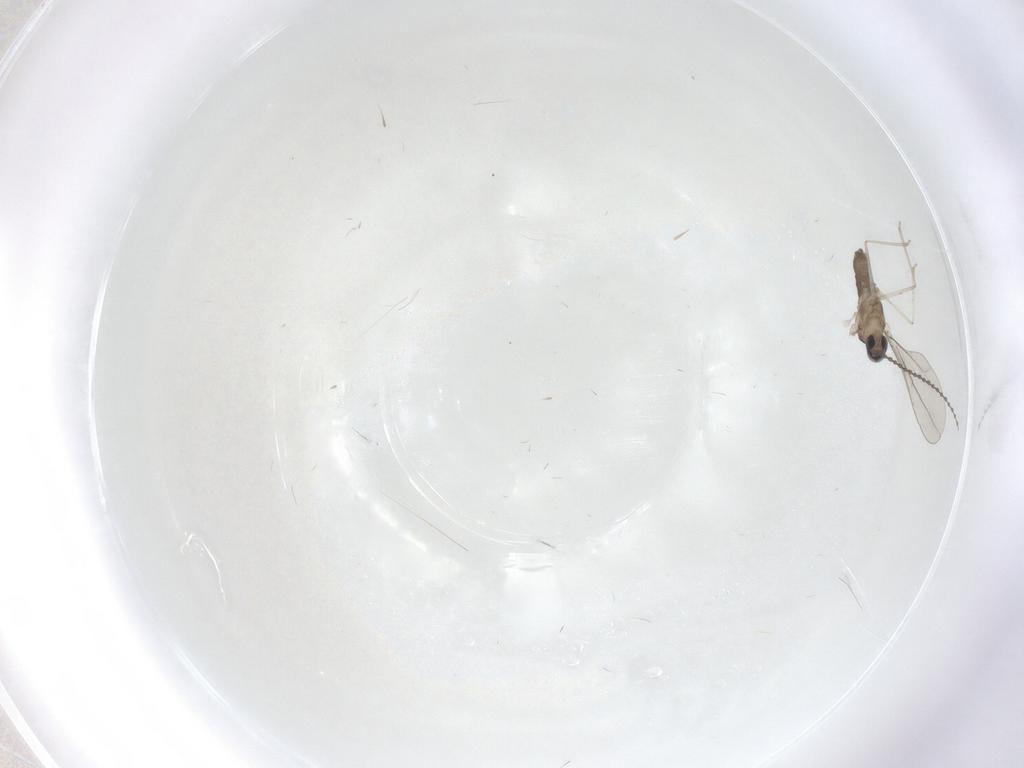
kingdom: Animalia
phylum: Arthropoda
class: Insecta
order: Diptera
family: Cecidomyiidae
